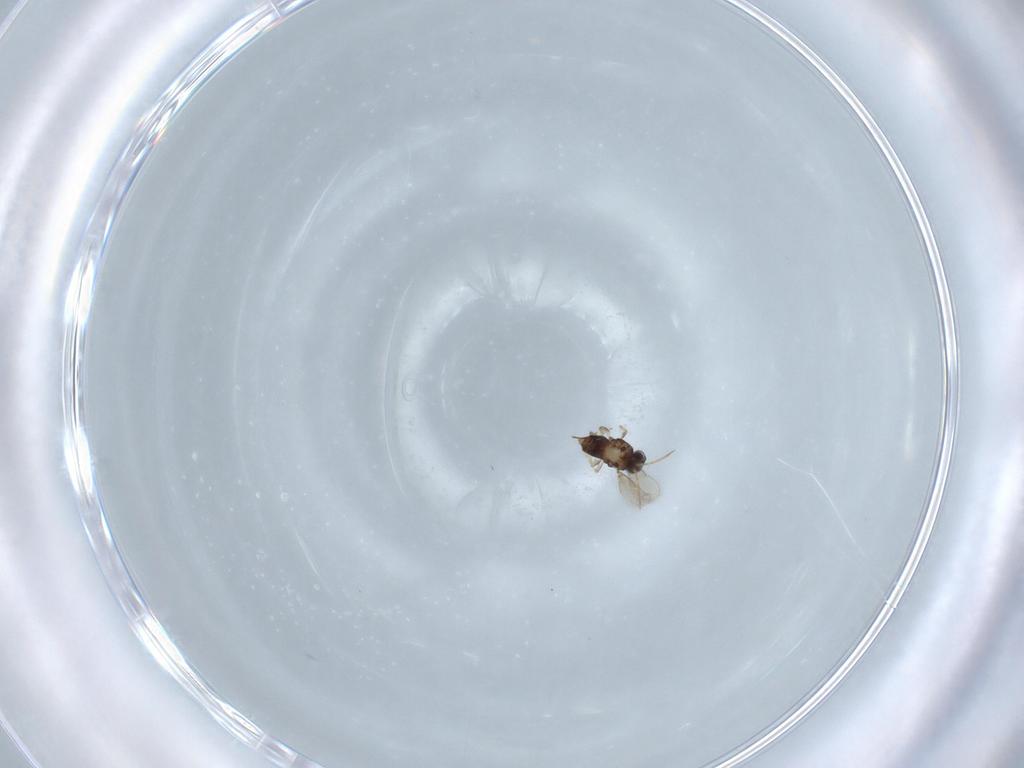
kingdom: Animalia
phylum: Arthropoda
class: Insecta
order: Hymenoptera
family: Aphelinidae
